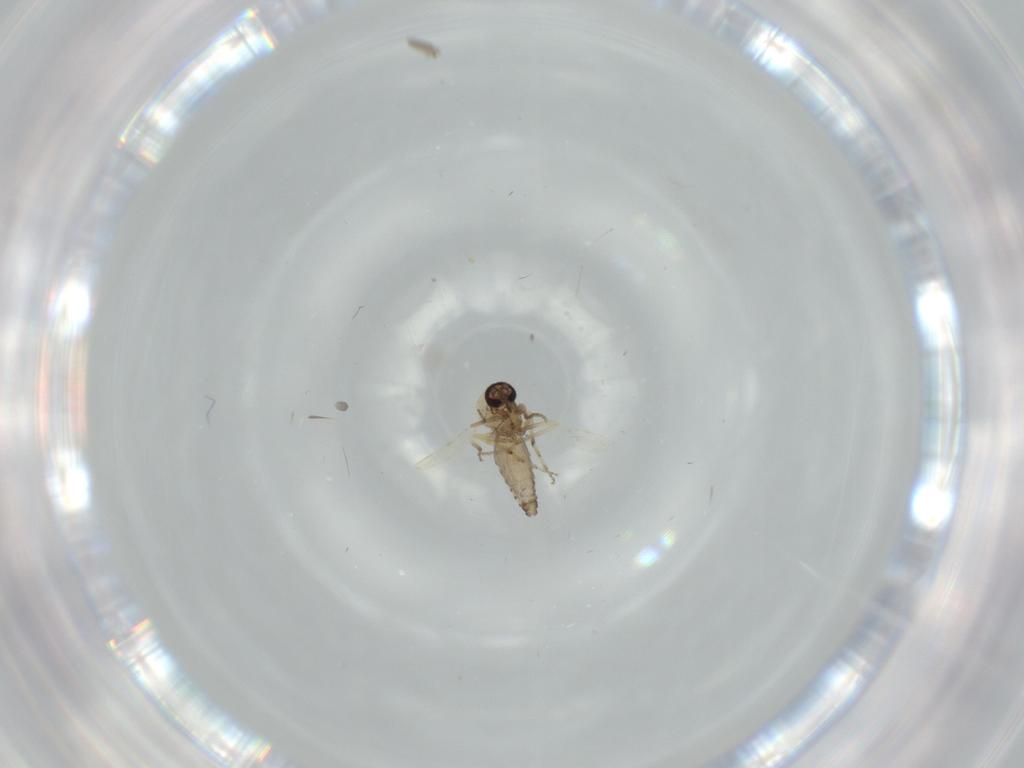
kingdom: Animalia
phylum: Arthropoda
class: Insecta
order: Diptera
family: Ceratopogonidae
